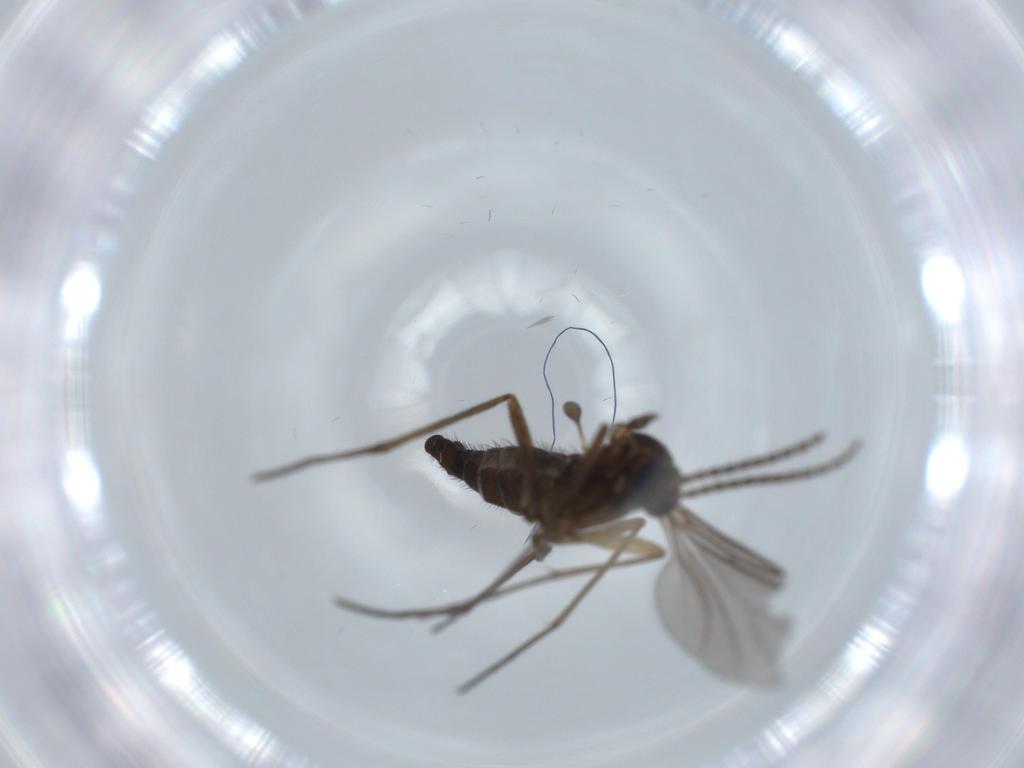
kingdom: Animalia
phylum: Arthropoda
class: Insecta
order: Diptera
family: Sciaridae
